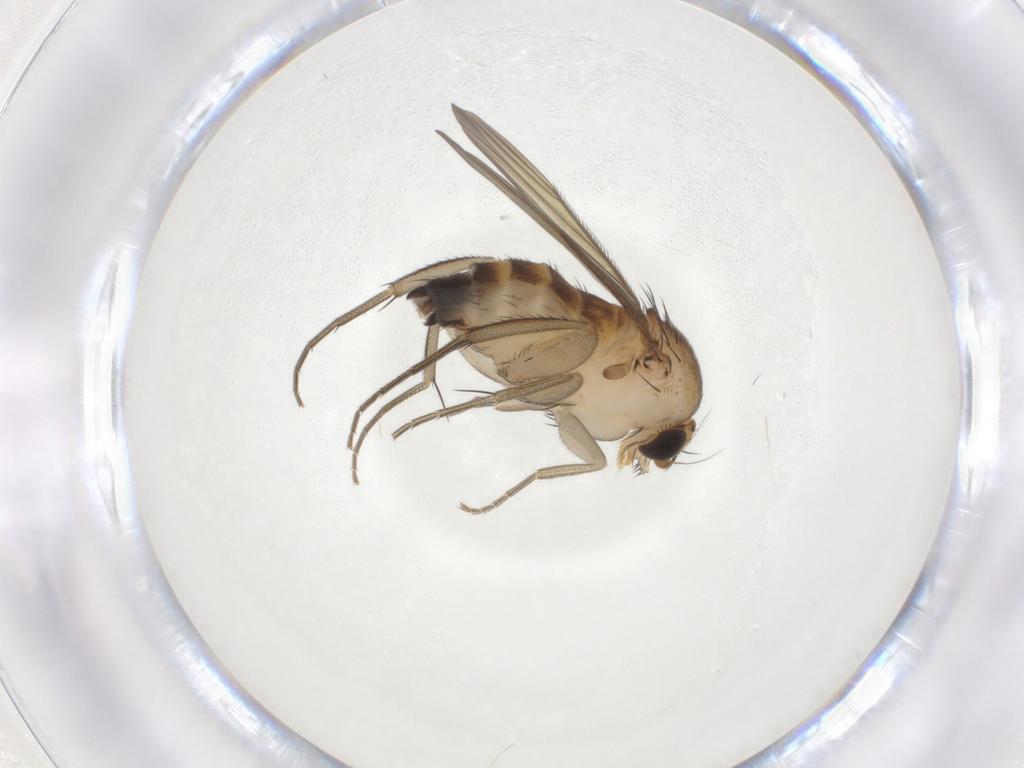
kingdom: Animalia
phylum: Arthropoda
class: Insecta
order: Diptera
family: Phoridae
